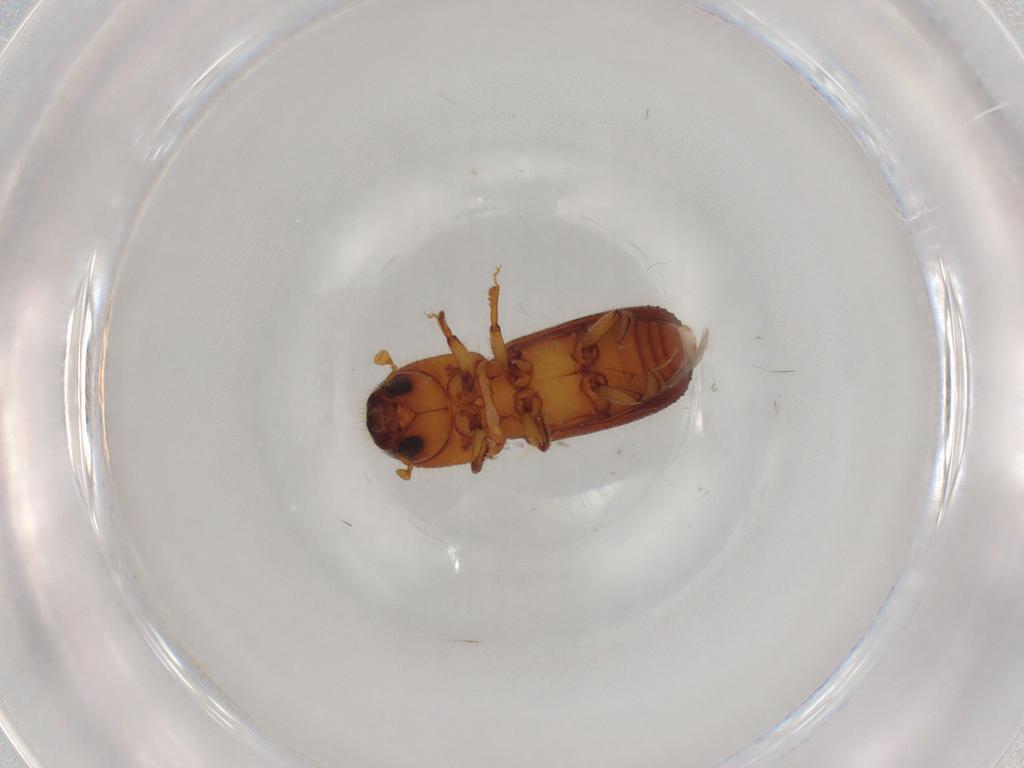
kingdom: Animalia
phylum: Arthropoda
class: Insecta
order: Coleoptera
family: Curculionidae
